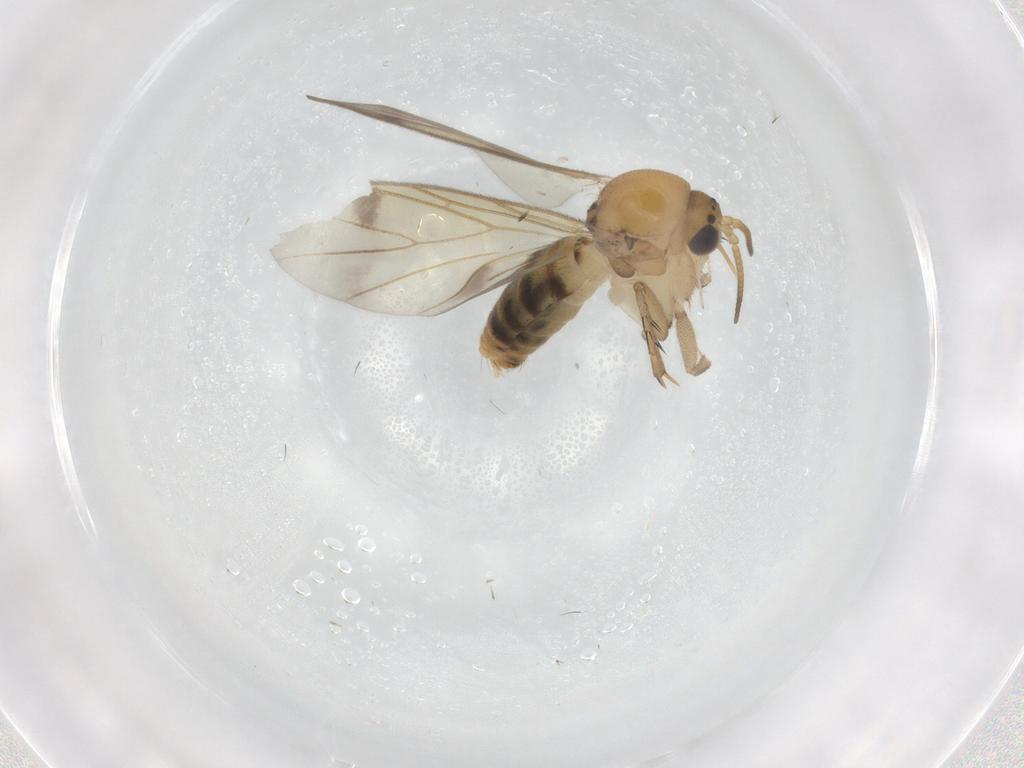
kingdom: Animalia
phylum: Arthropoda
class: Insecta
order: Diptera
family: Mycetophilidae
